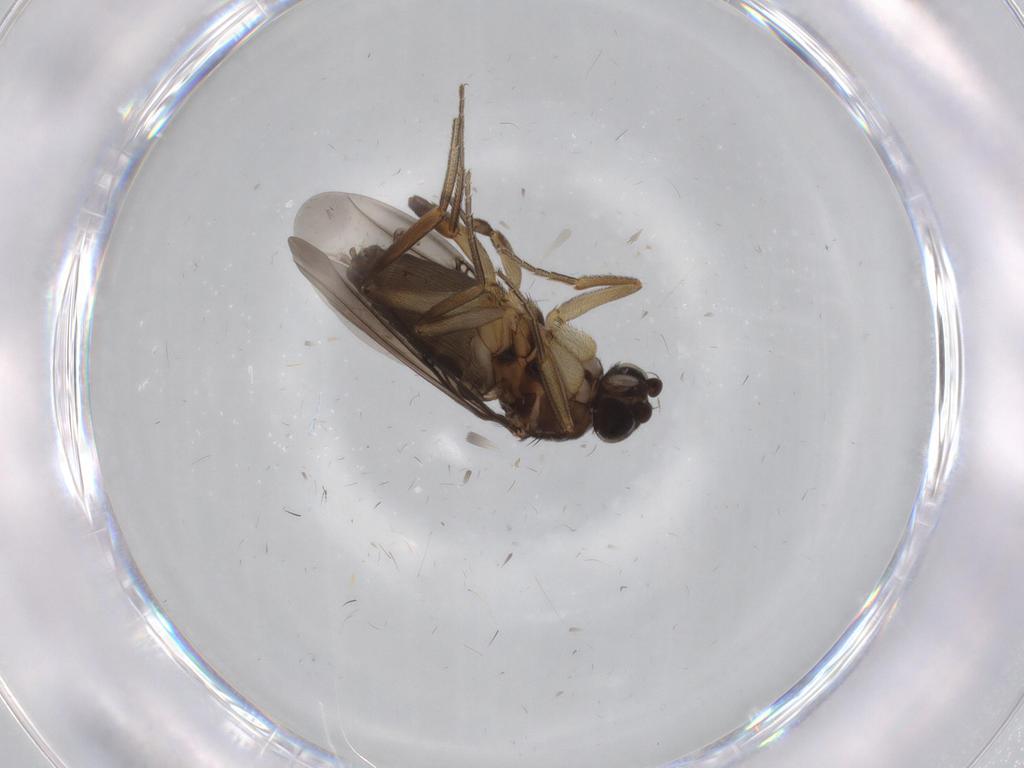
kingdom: Animalia
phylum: Arthropoda
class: Insecta
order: Diptera
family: Phoridae
